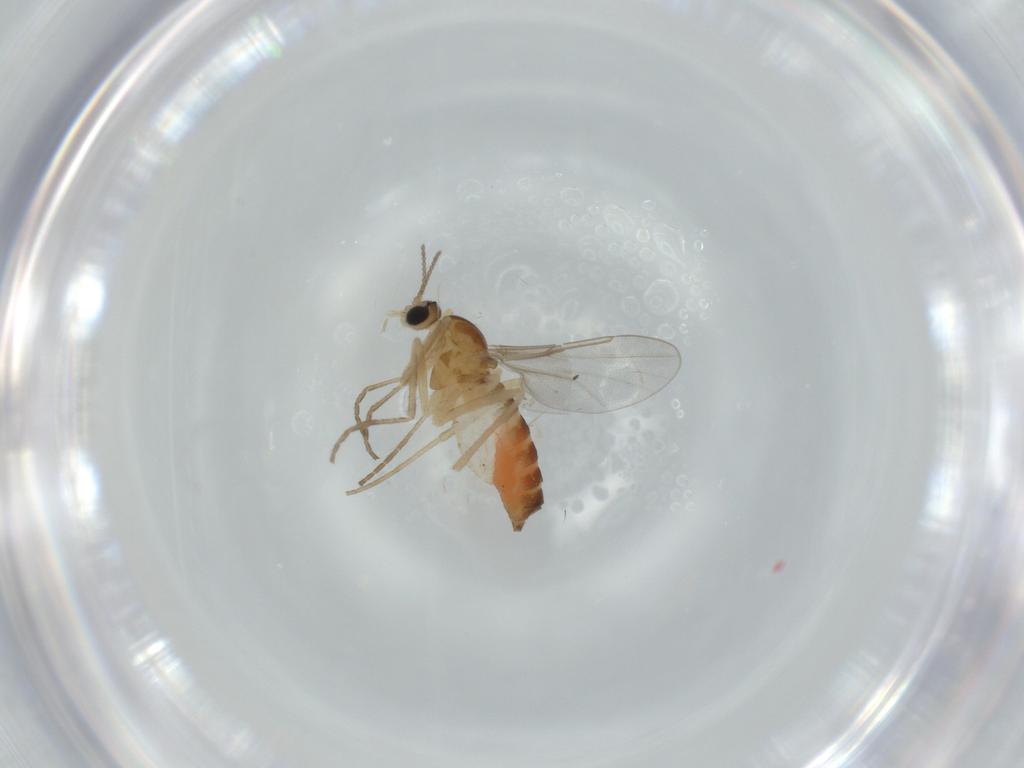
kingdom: Animalia
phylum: Arthropoda
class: Insecta
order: Diptera
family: Cecidomyiidae
